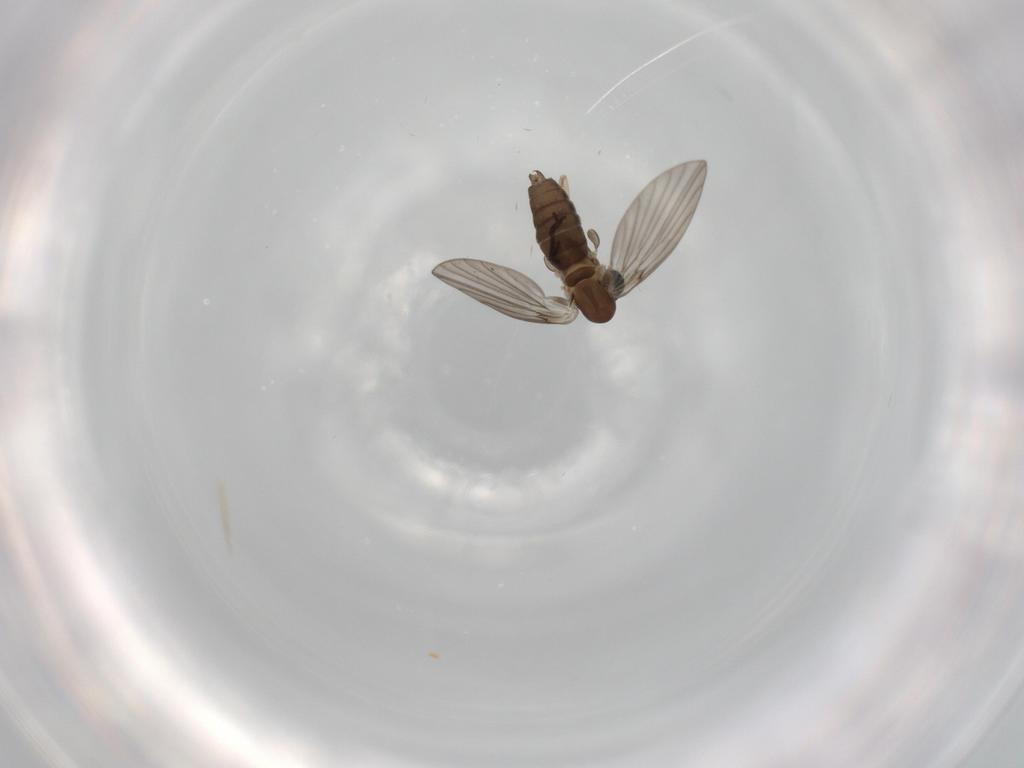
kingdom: Animalia
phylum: Arthropoda
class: Insecta
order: Diptera
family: Psychodidae
